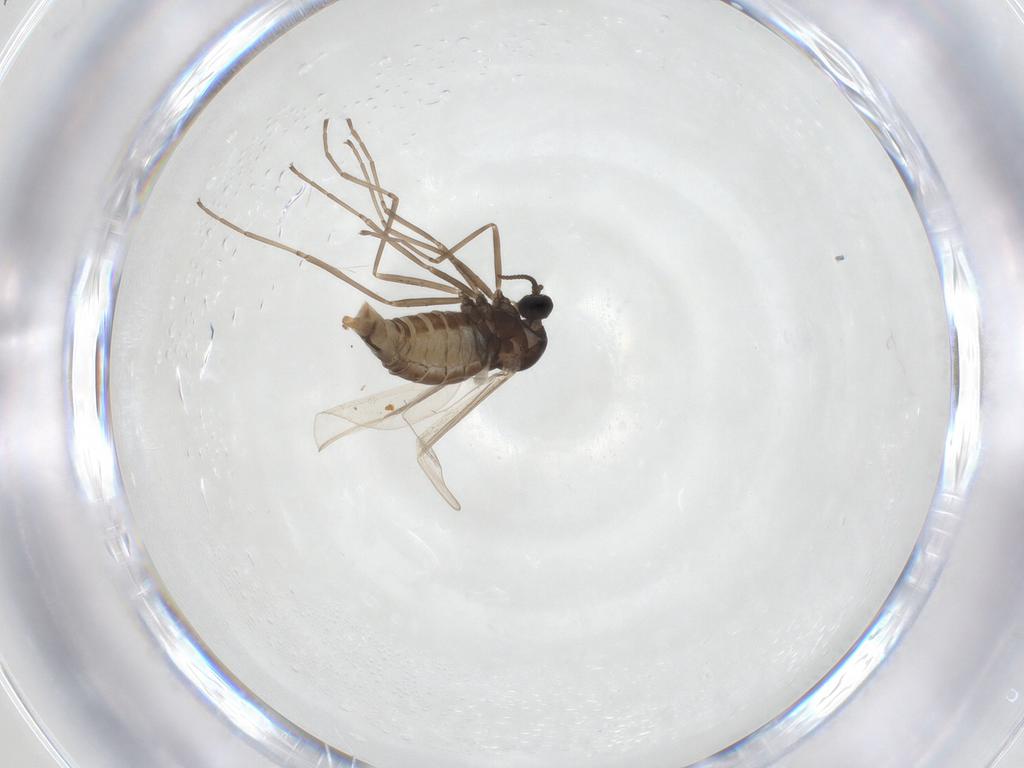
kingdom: Animalia
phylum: Arthropoda
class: Insecta
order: Diptera
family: Cecidomyiidae
